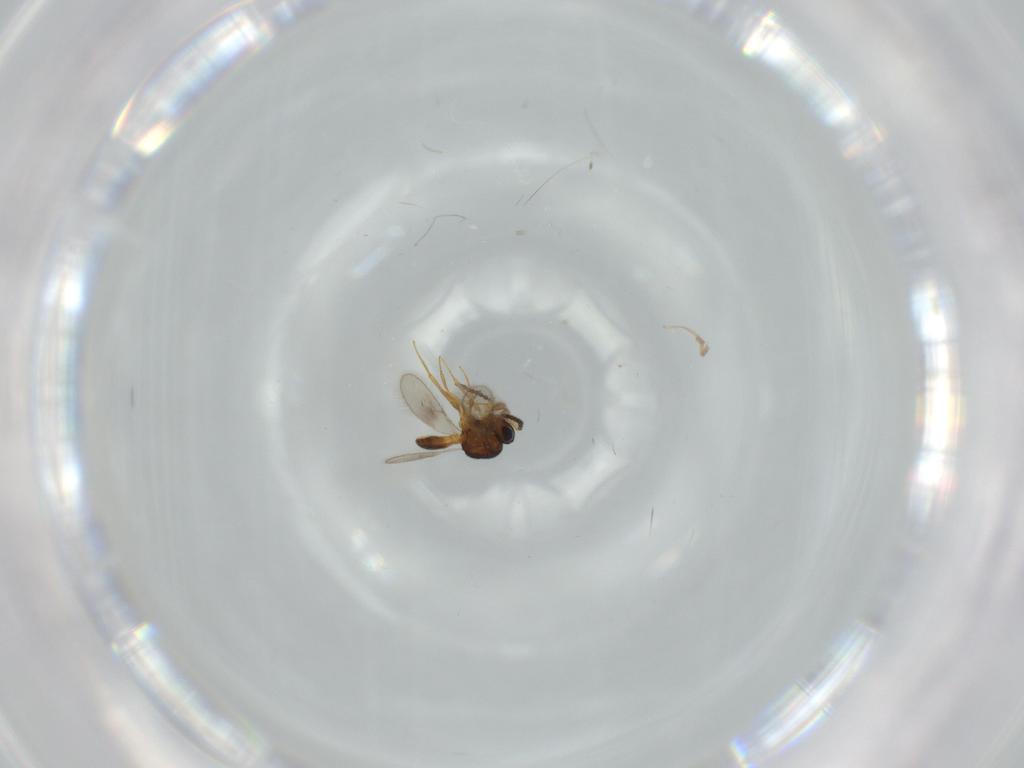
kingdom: Animalia
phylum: Arthropoda
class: Insecta
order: Hymenoptera
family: Scelionidae
